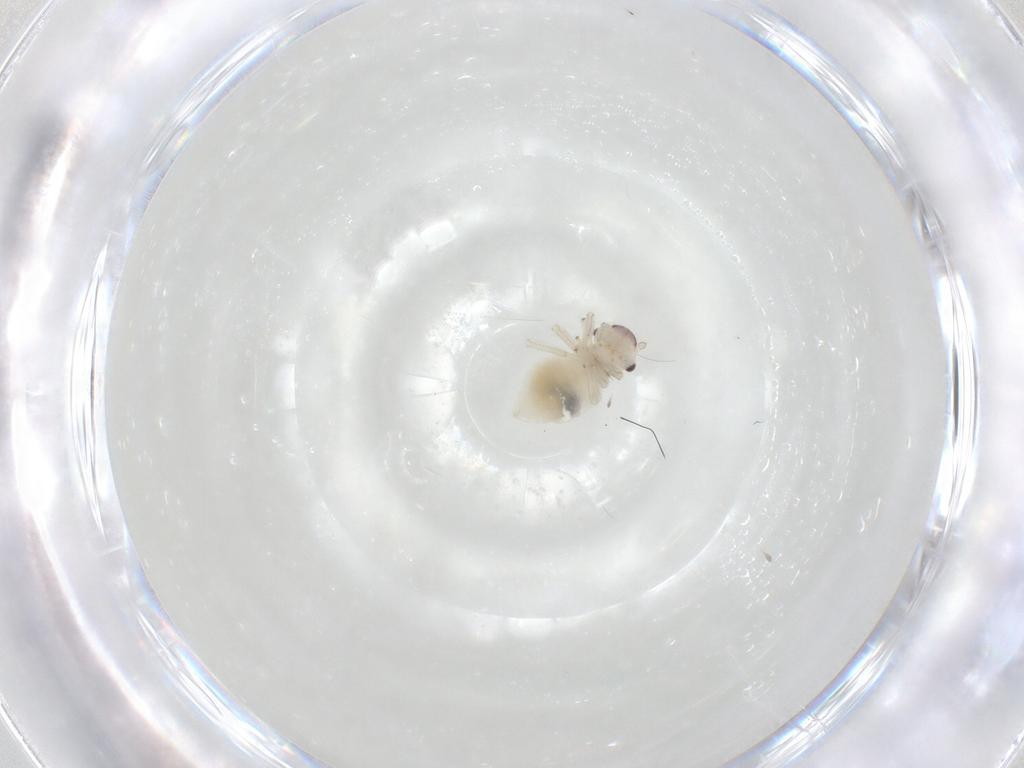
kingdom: Animalia
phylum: Arthropoda
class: Insecta
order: Psocodea
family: Amphipsocidae
